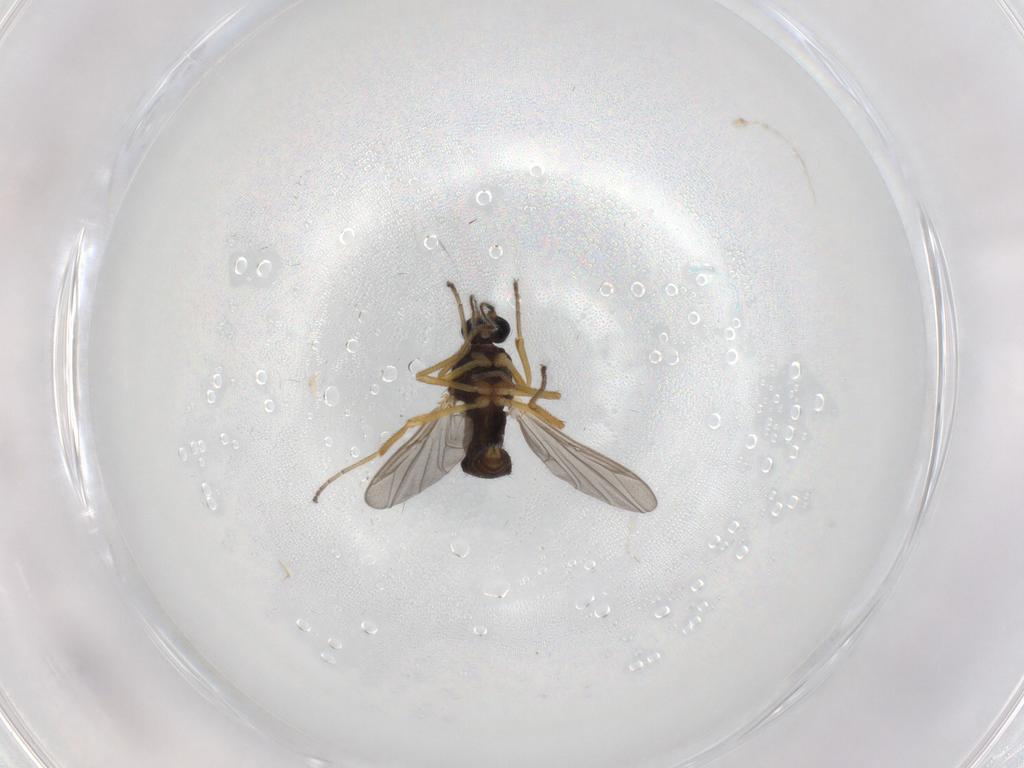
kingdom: Animalia
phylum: Arthropoda
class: Insecta
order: Diptera
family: Ceratopogonidae
